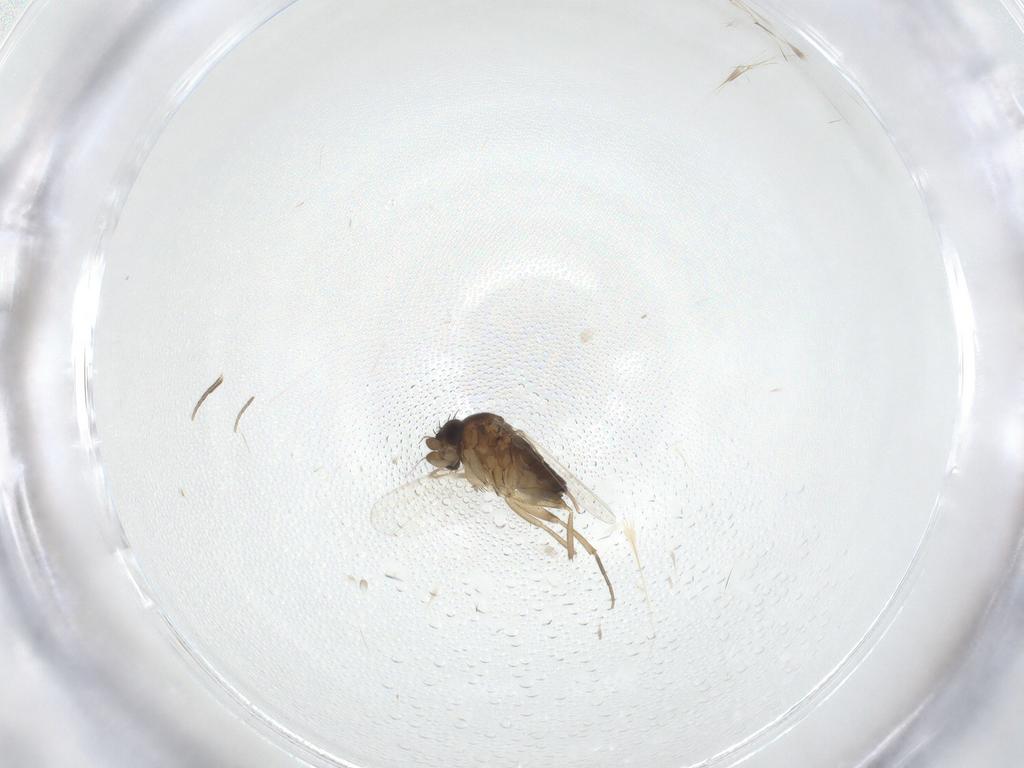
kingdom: Animalia
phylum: Arthropoda
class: Insecta
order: Diptera
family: Phoridae
